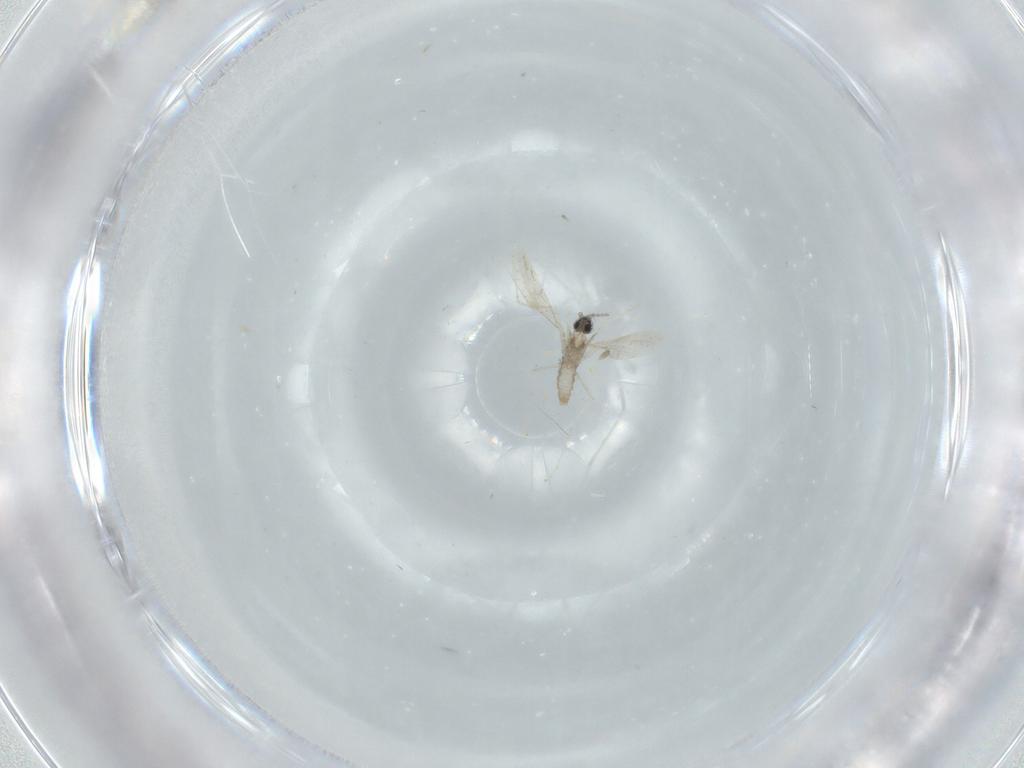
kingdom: Animalia
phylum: Arthropoda
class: Insecta
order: Diptera
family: Cecidomyiidae
